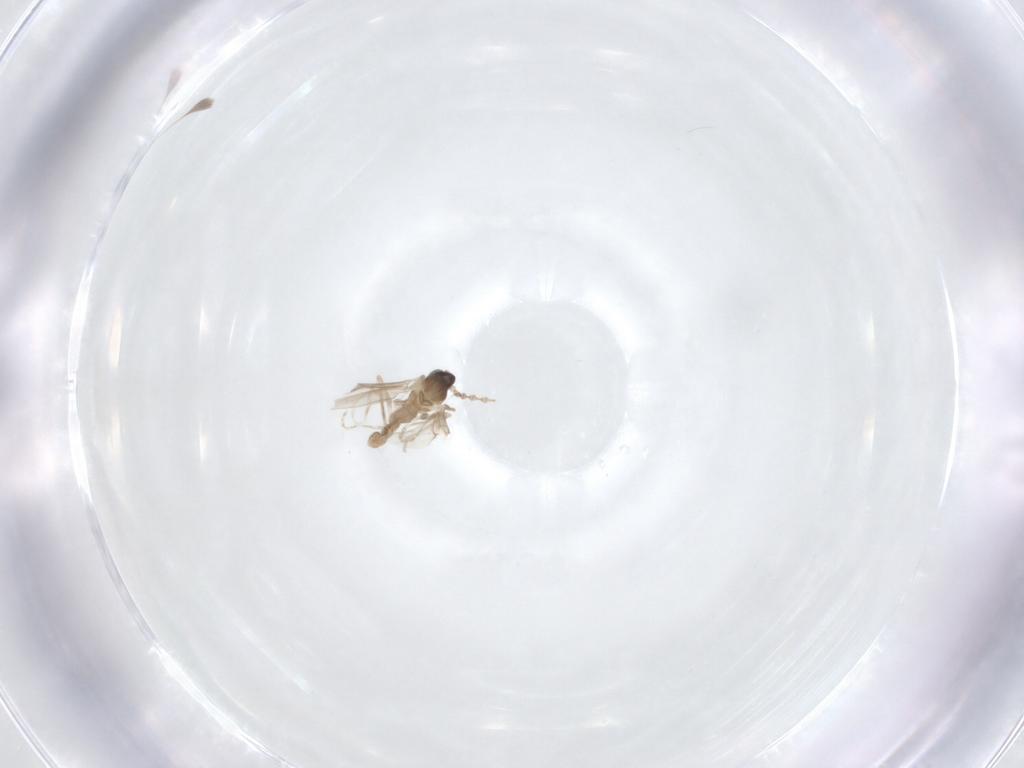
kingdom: Animalia
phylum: Arthropoda
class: Insecta
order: Diptera
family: Cecidomyiidae
